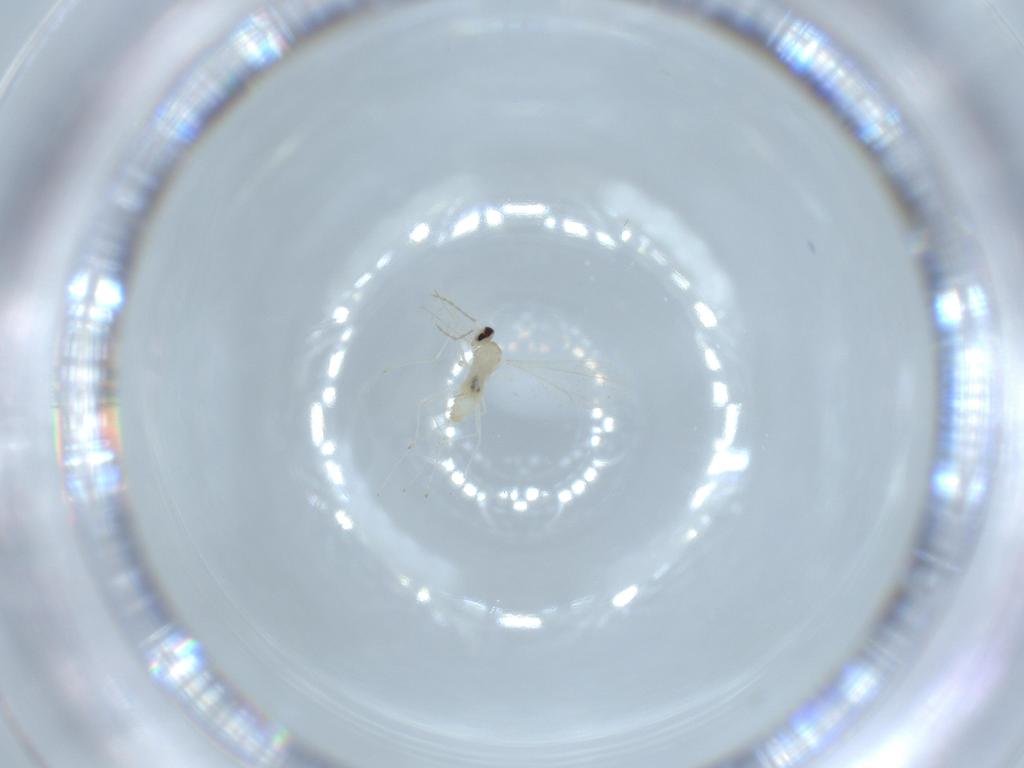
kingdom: Animalia
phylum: Arthropoda
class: Insecta
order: Diptera
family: Cecidomyiidae
